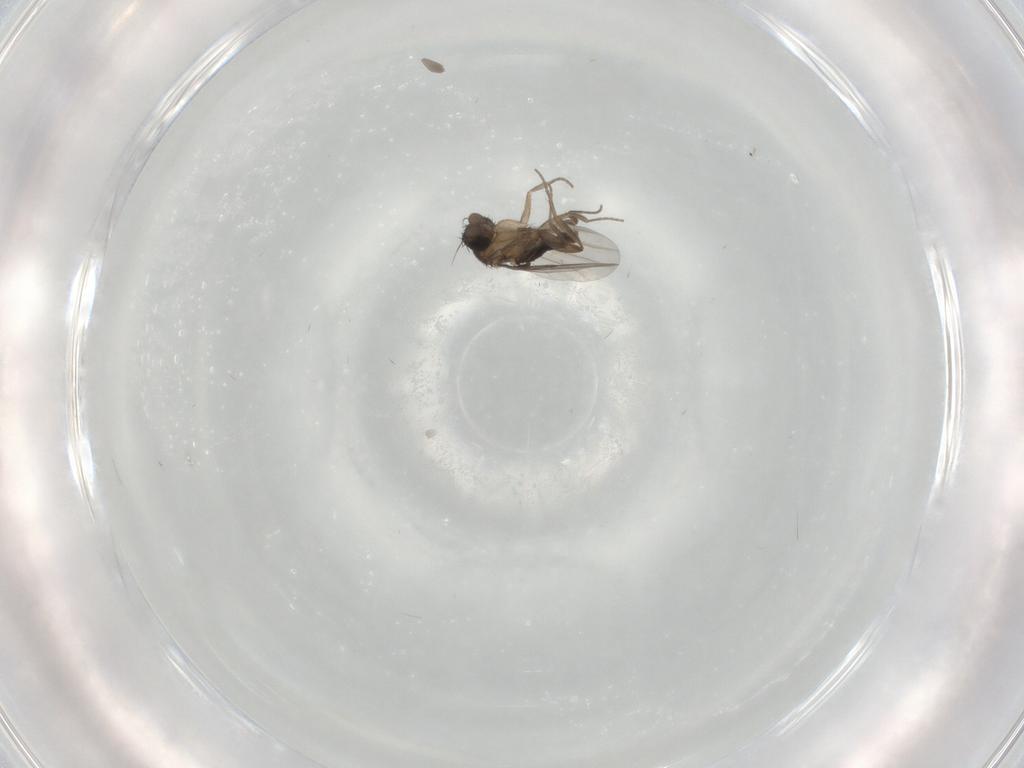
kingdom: Animalia
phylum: Arthropoda
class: Insecta
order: Diptera
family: Phoridae
